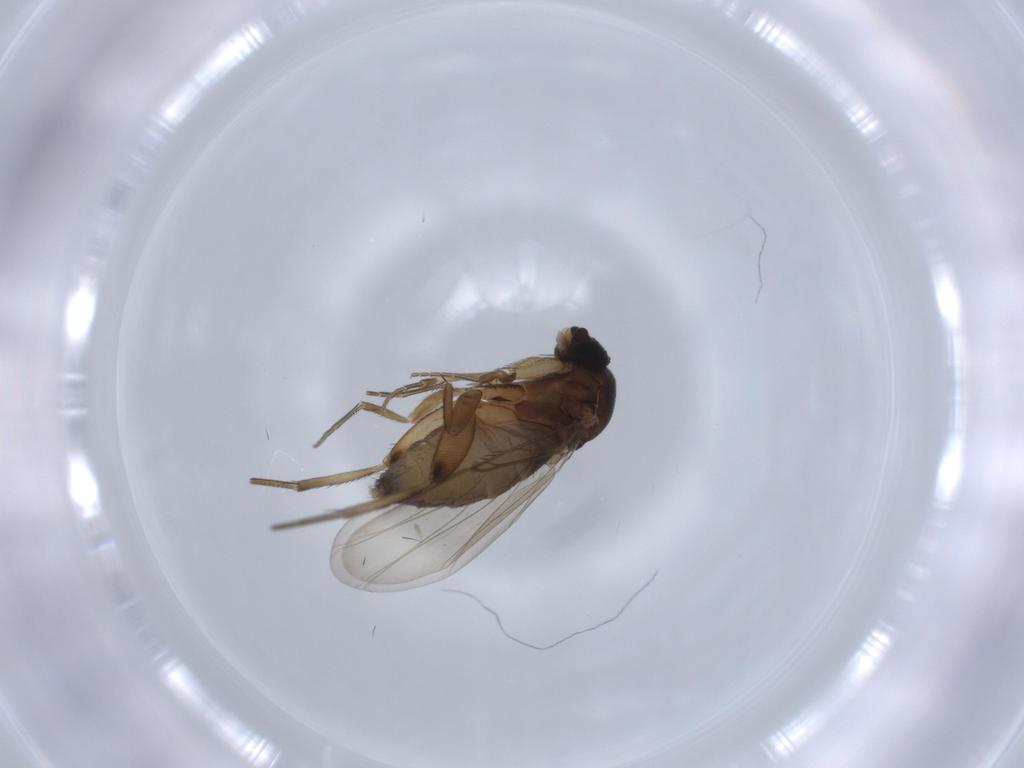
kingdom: Animalia
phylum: Arthropoda
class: Insecta
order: Diptera
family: Phoridae
